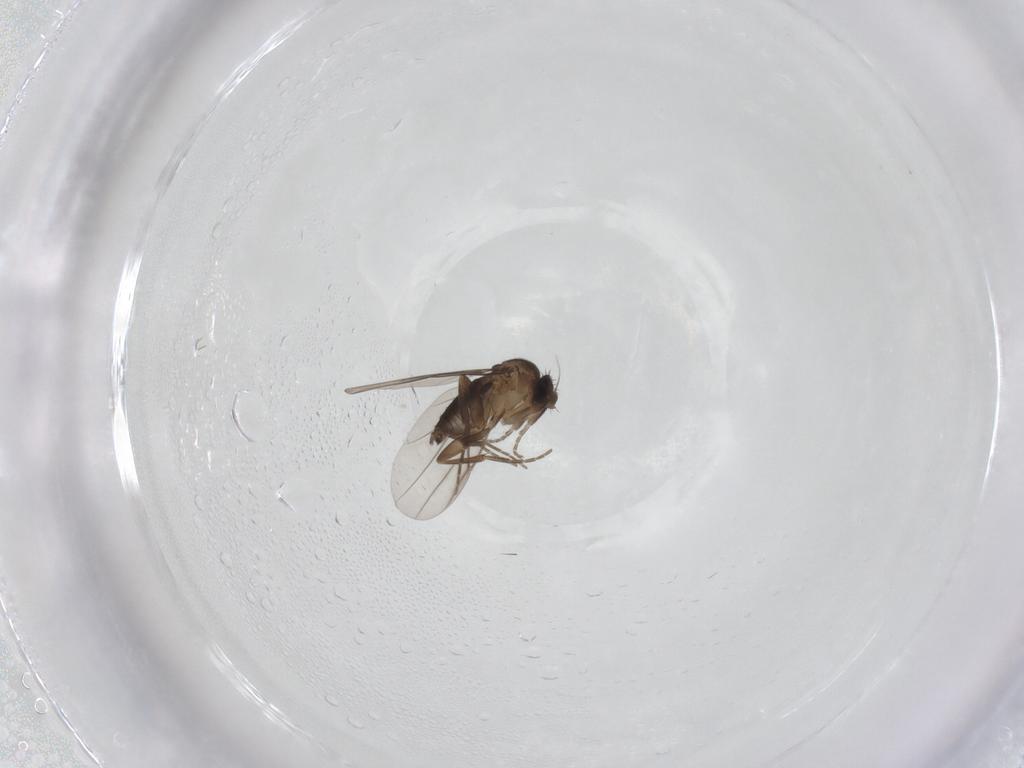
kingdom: Animalia
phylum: Arthropoda
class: Insecta
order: Diptera
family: Phoridae
